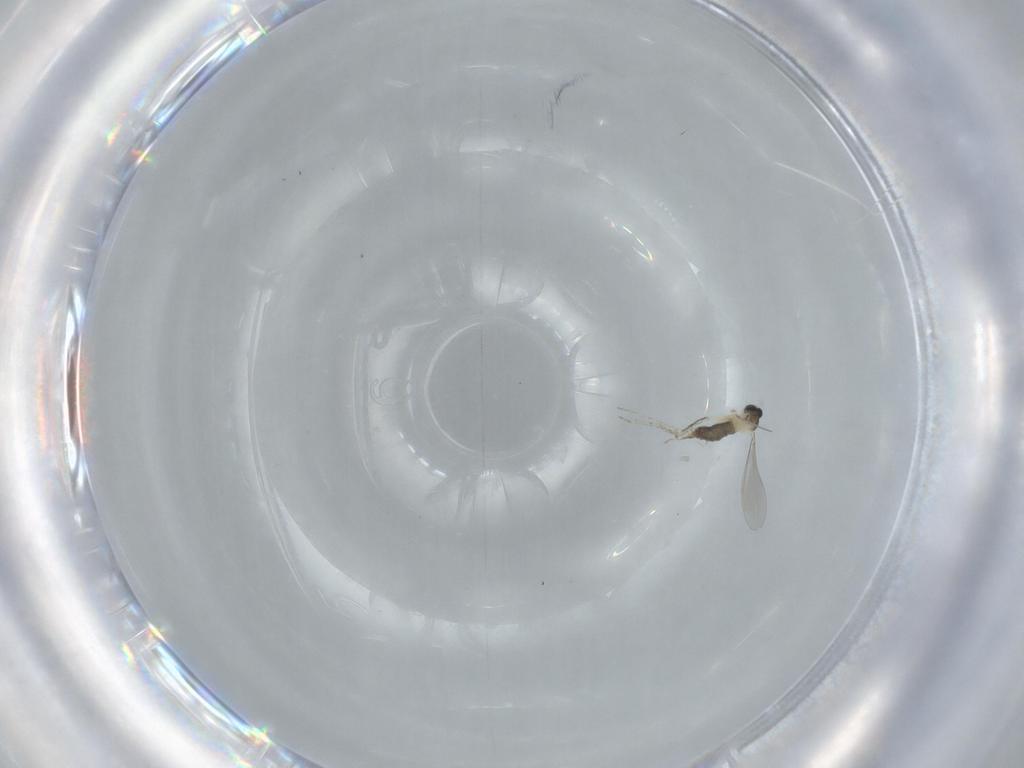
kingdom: Animalia
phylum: Arthropoda
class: Insecta
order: Diptera
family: Cecidomyiidae
